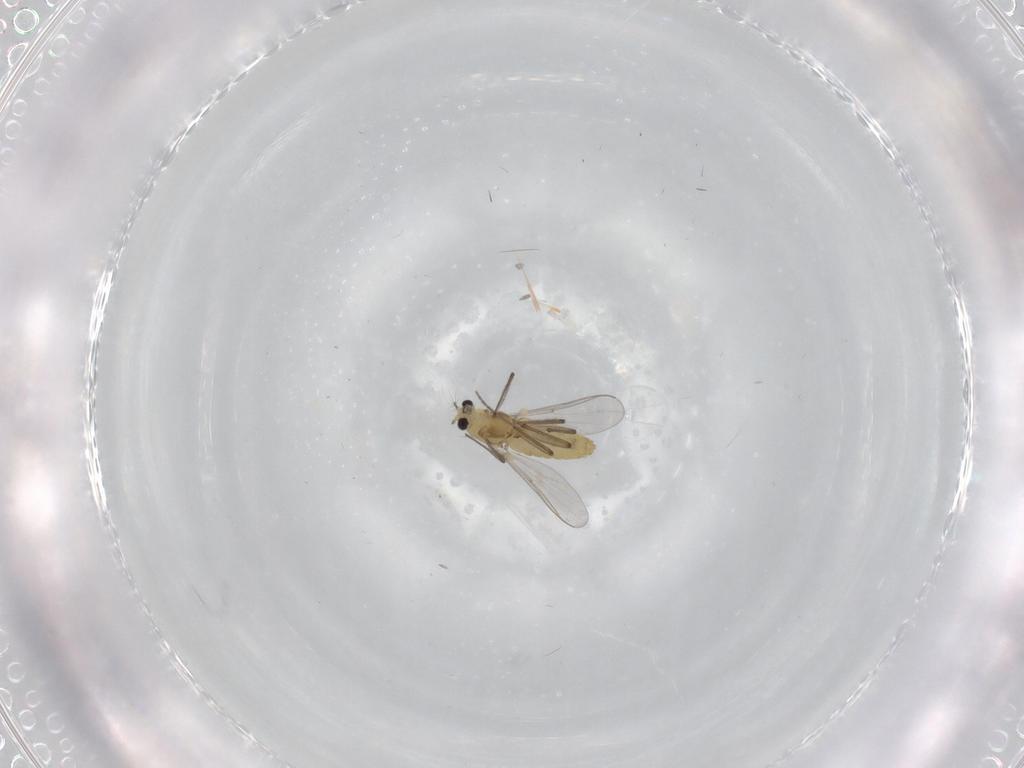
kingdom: Animalia
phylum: Arthropoda
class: Insecta
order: Diptera
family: Chironomidae
